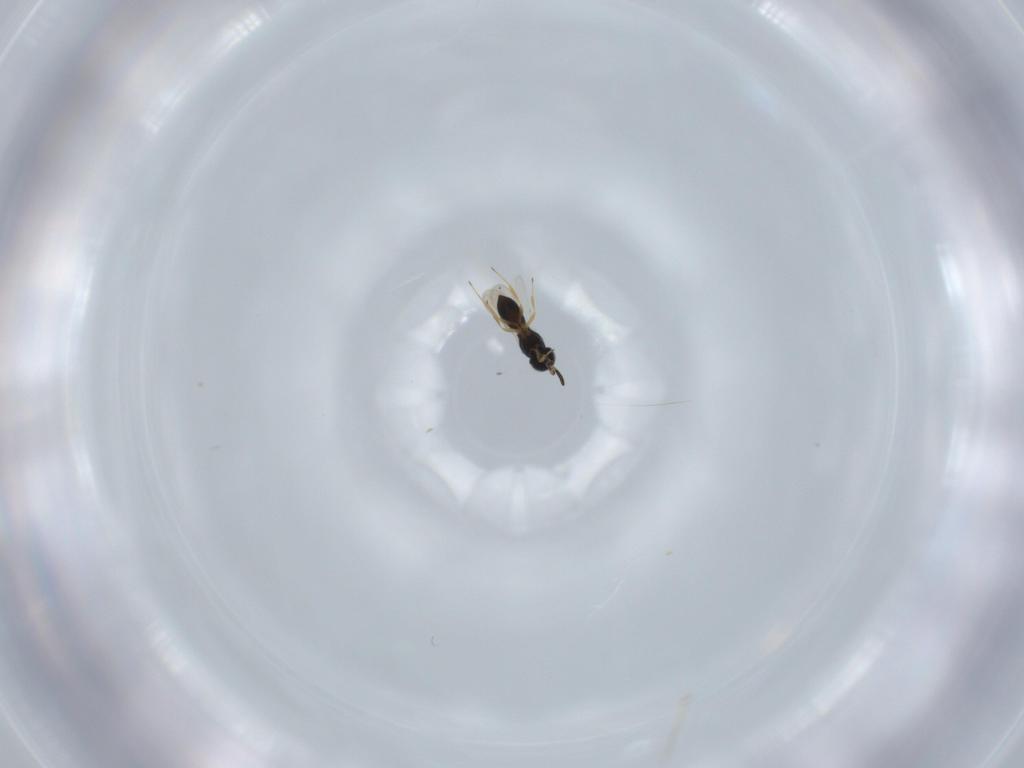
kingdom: Animalia
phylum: Arthropoda
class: Insecta
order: Hymenoptera
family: Scelionidae
